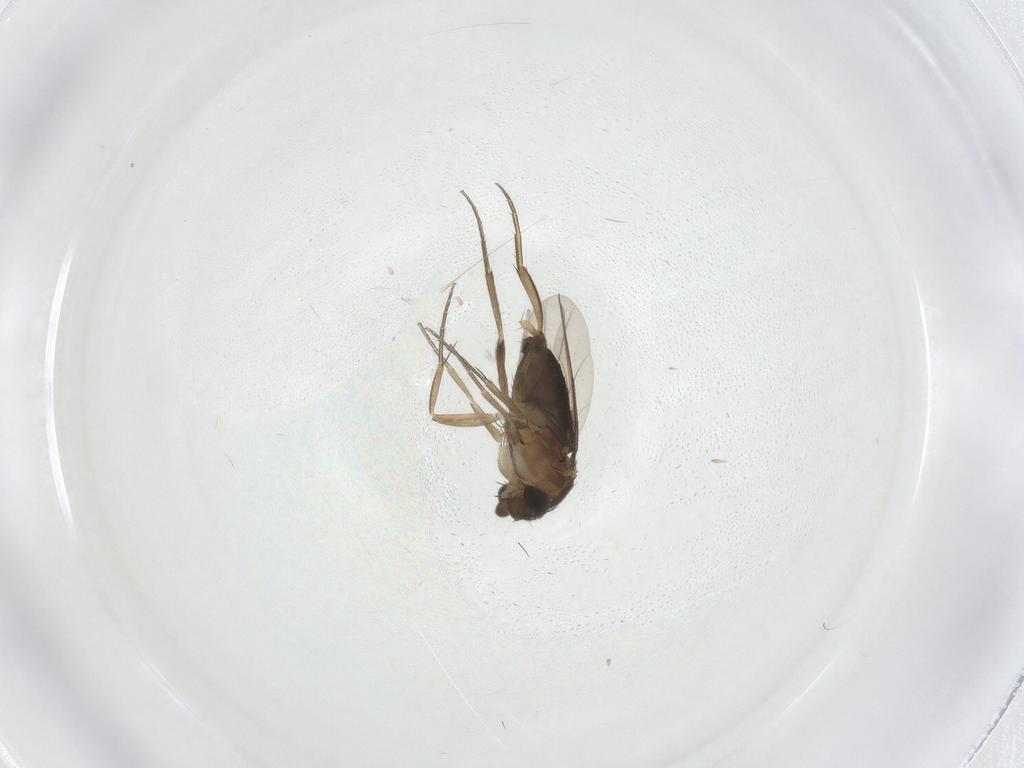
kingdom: Animalia
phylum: Arthropoda
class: Insecta
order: Diptera
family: Phoridae
